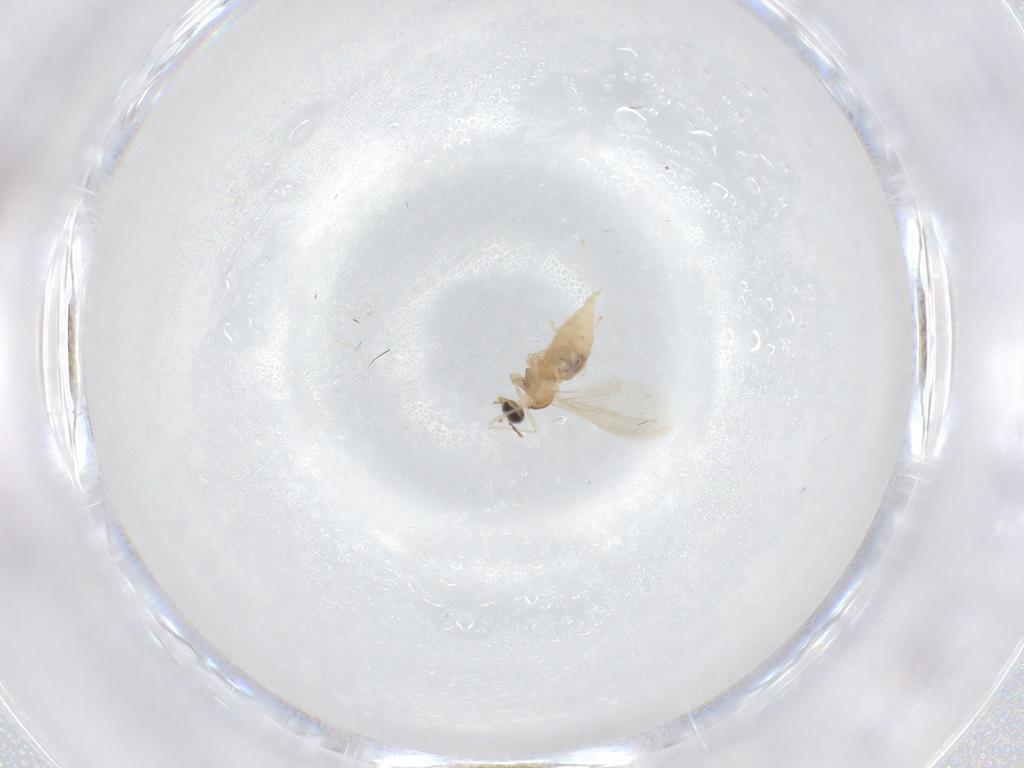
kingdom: Animalia
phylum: Arthropoda
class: Insecta
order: Diptera
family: Cecidomyiidae
